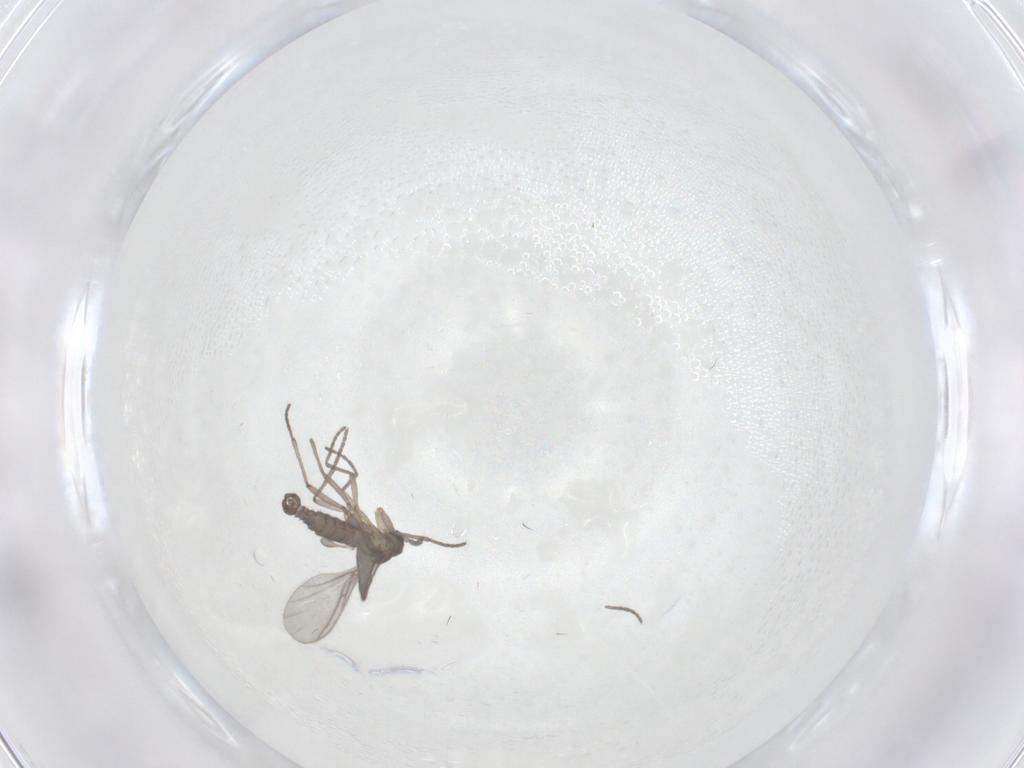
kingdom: Animalia
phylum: Arthropoda
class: Insecta
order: Diptera
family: Sciaridae
